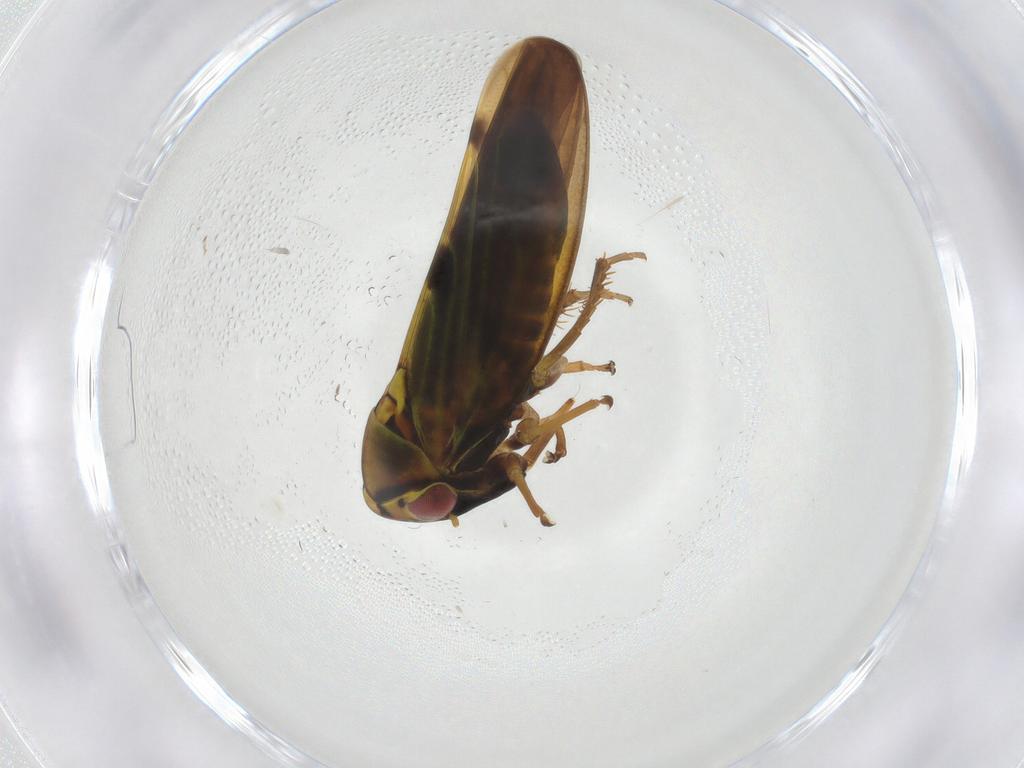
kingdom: Animalia
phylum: Arthropoda
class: Insecta
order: Hemiptera
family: Cicadellidae
